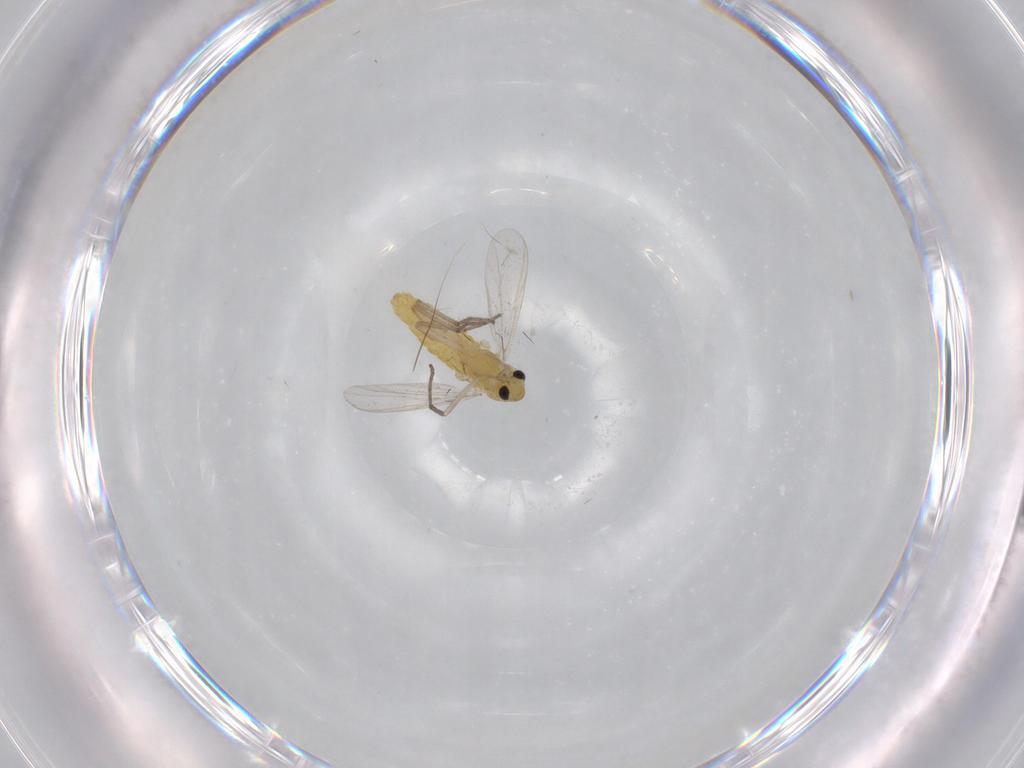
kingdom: Animalia
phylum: Arthropoda
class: Insecta
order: Diptera
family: Chironomidae
